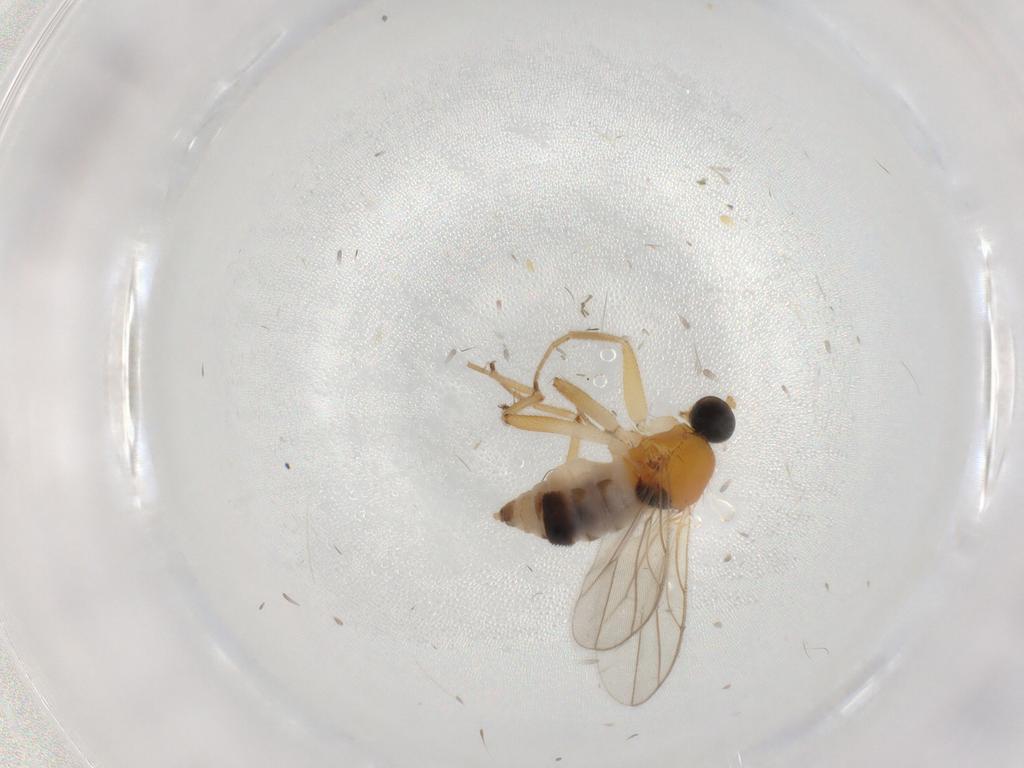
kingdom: Animalia
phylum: Arthropoda
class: Insecta
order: Diptera
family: Hybotidae
